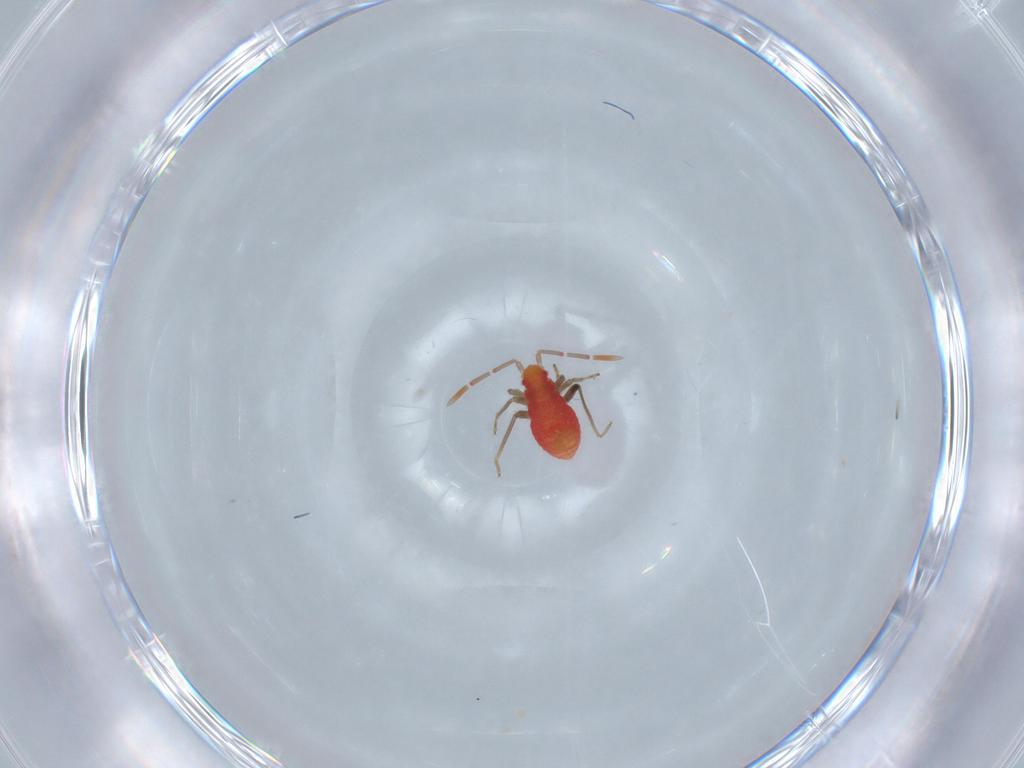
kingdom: Animalia
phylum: Arthropoda
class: Insecta
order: Hemiptera
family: Miridae
